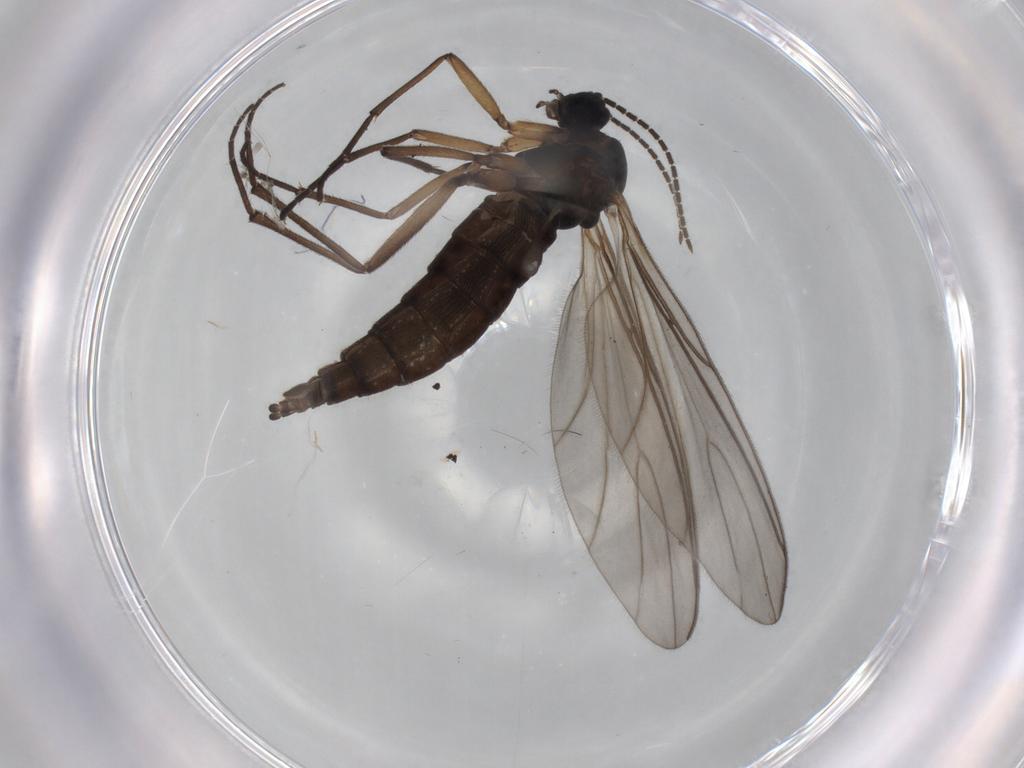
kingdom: Animalia
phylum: Arthropoda
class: Insecta
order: Diptera
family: Sciaridae
